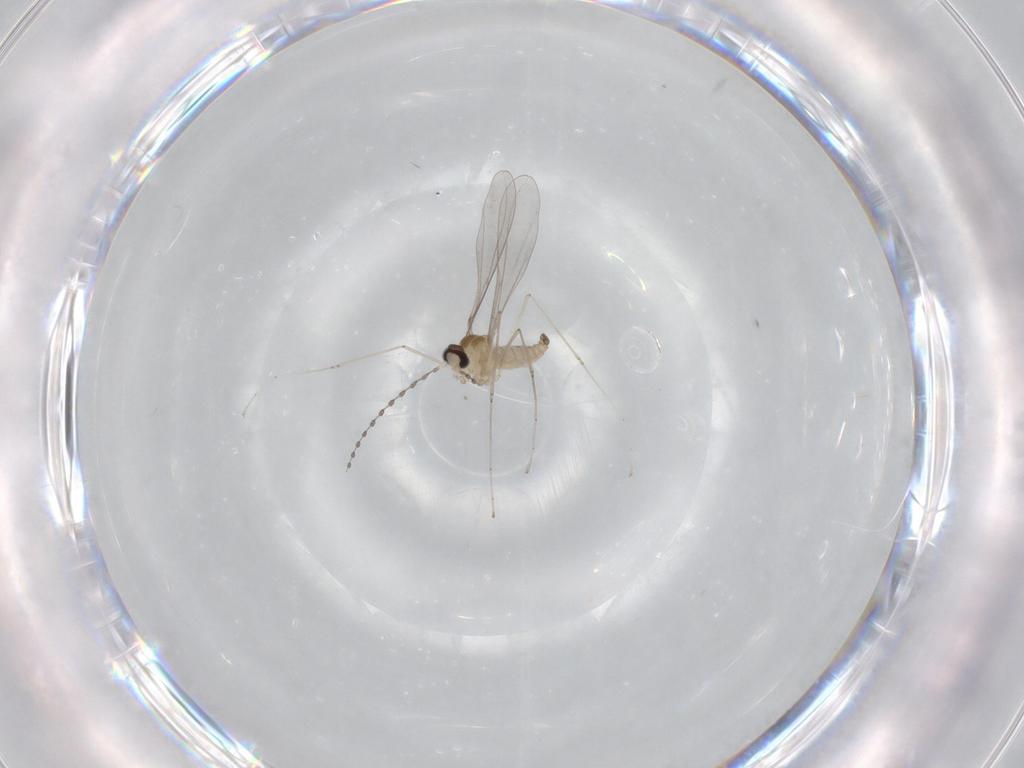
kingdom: Animalia
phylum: Arthropoda
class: Insecta
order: Diptera
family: Cecidomyiidae
